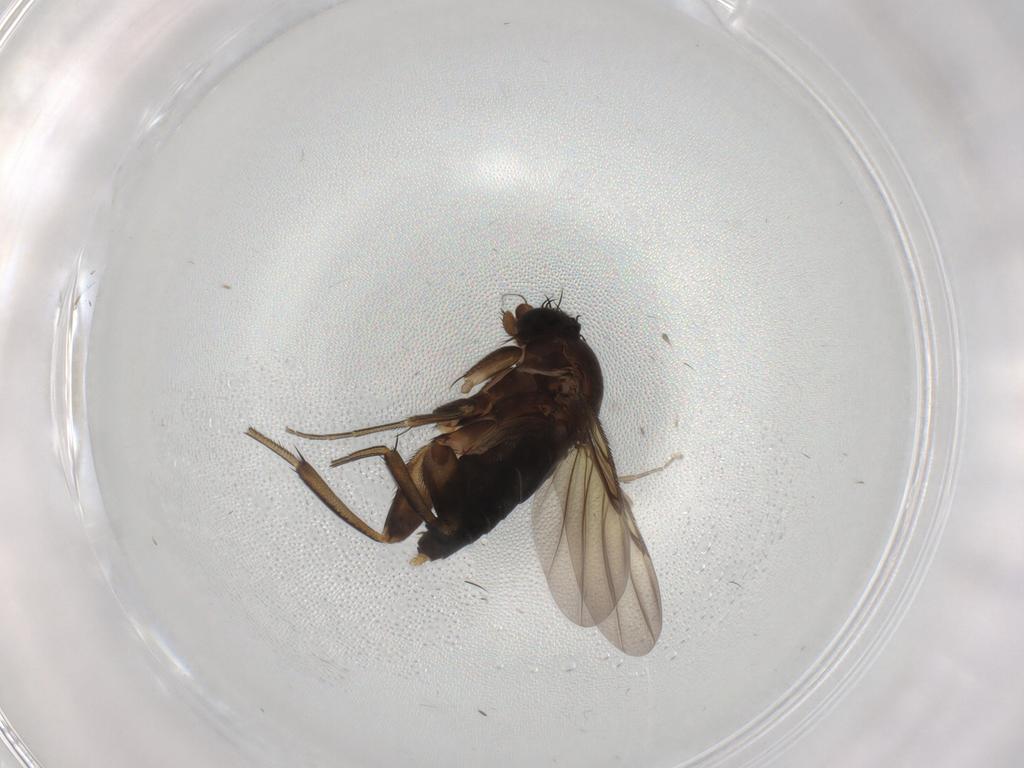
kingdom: Animalia
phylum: Arthropoda
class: Insecta
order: Diptera
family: Phoridae
